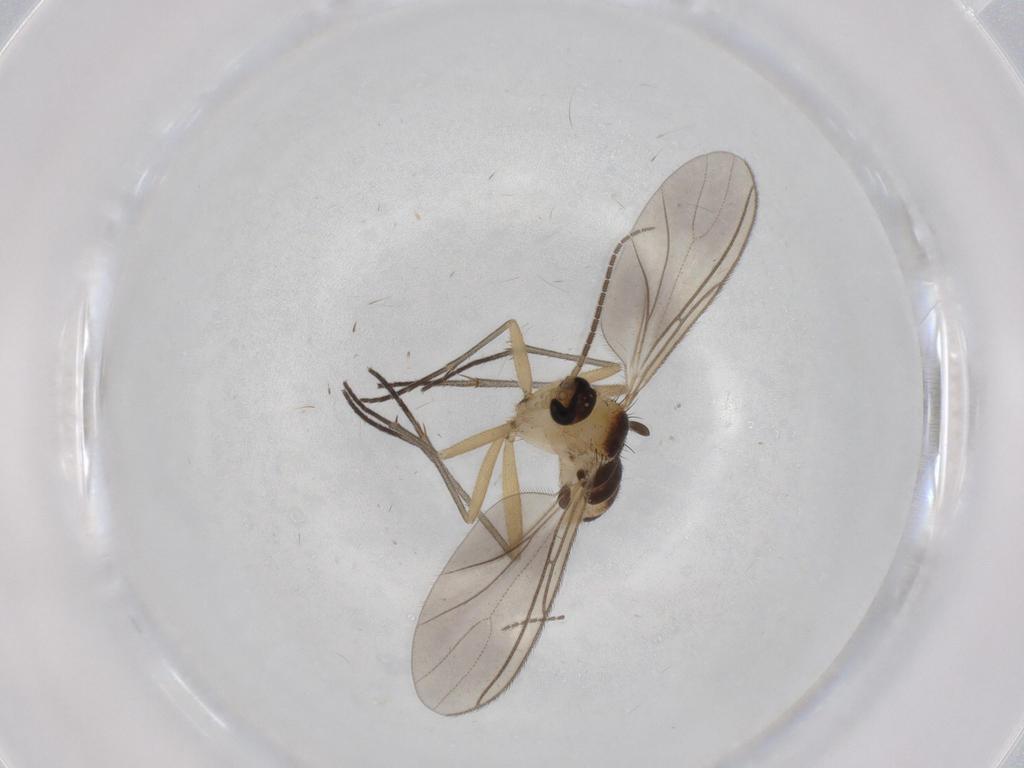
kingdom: Animalia
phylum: Arthropoda
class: Insecta
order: Diptera
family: Sciaridae
